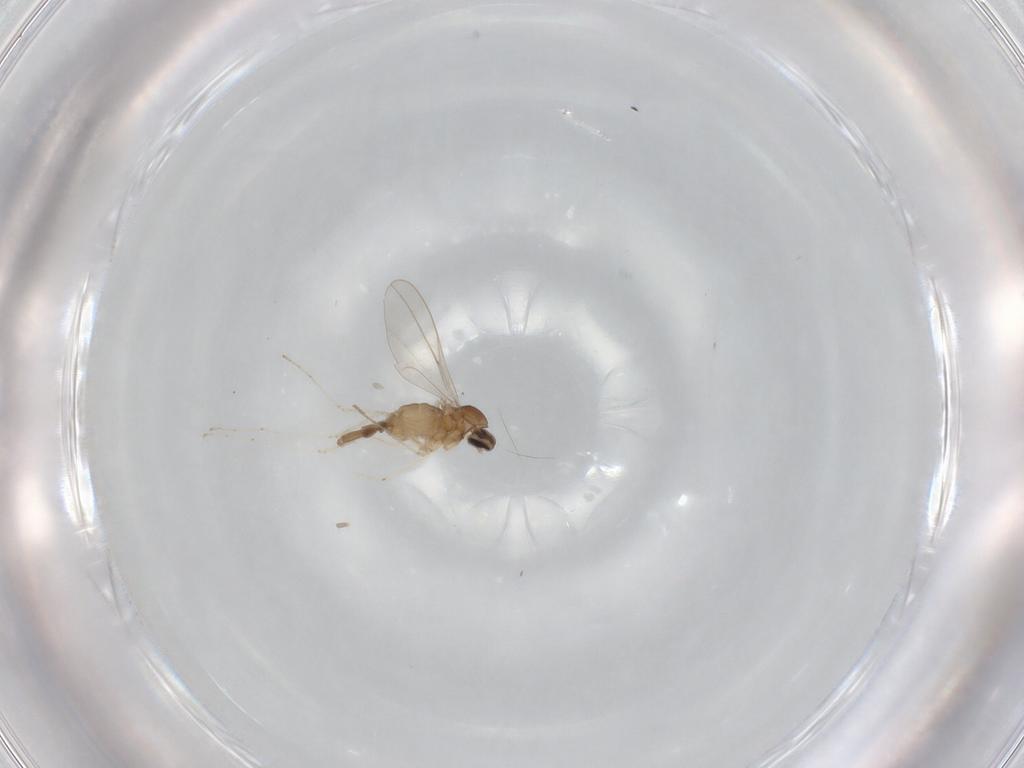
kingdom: Animalia
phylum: Arthropoda
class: Insecta
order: Diptera
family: Cecidomyiidae
